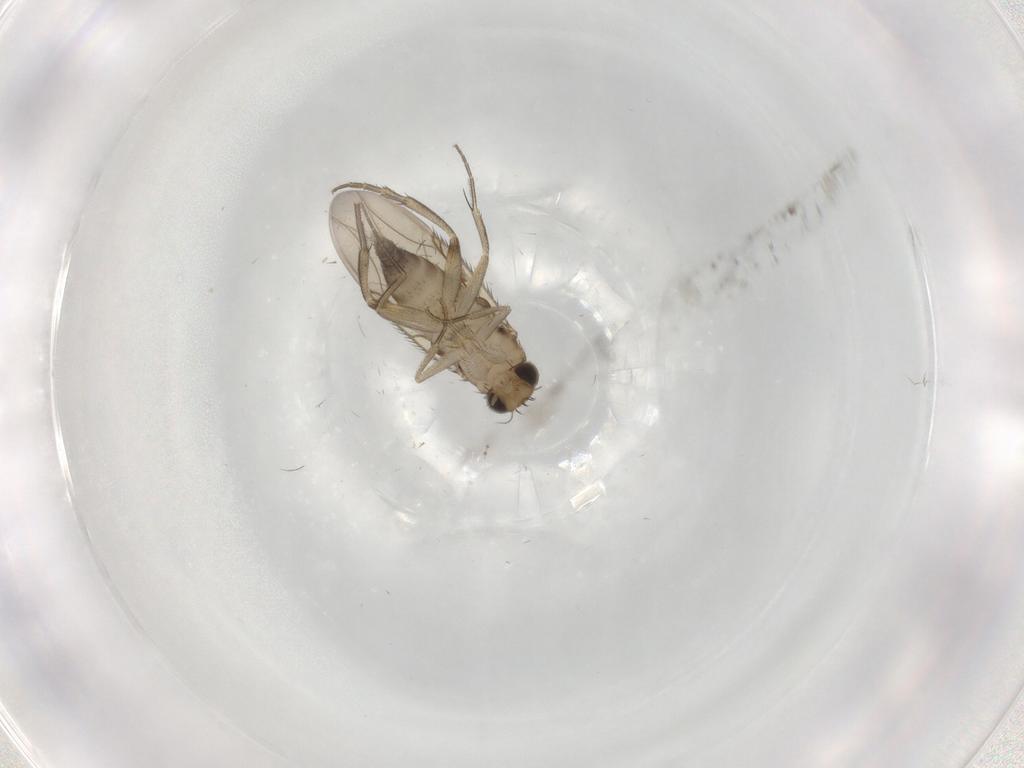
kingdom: Animalia
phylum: Arthropoda
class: Insecta
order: Diptera
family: Phoridae
